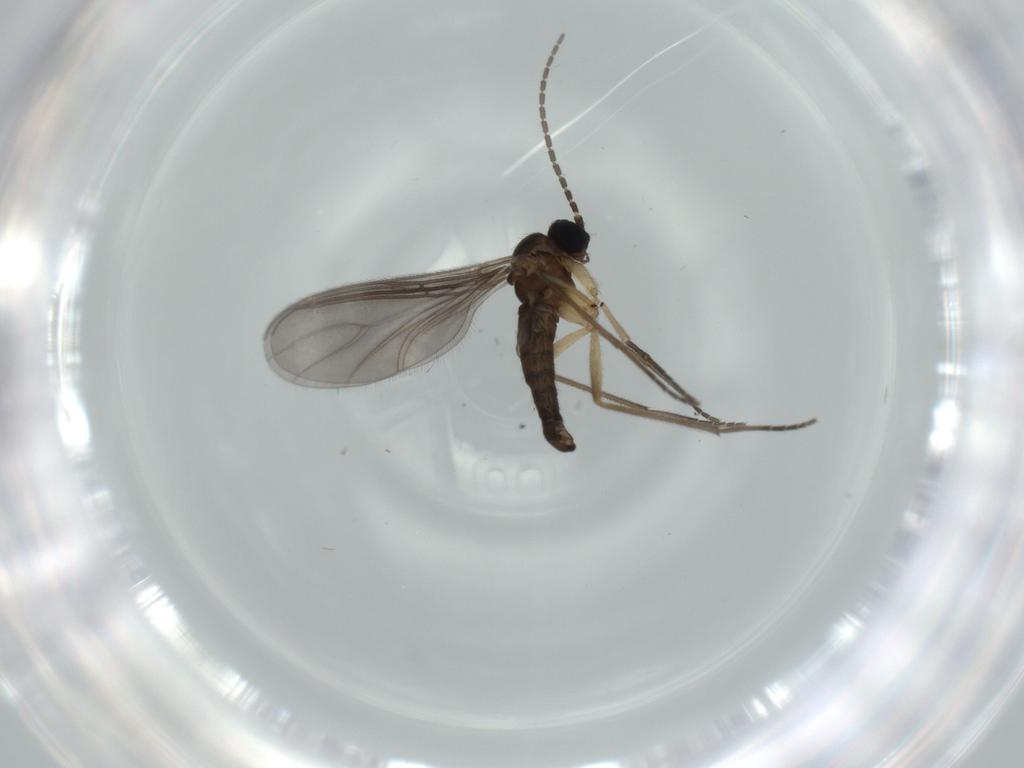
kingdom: Animalia
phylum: Arthropoda
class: Insecta
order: Diptera
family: Sciaridae
